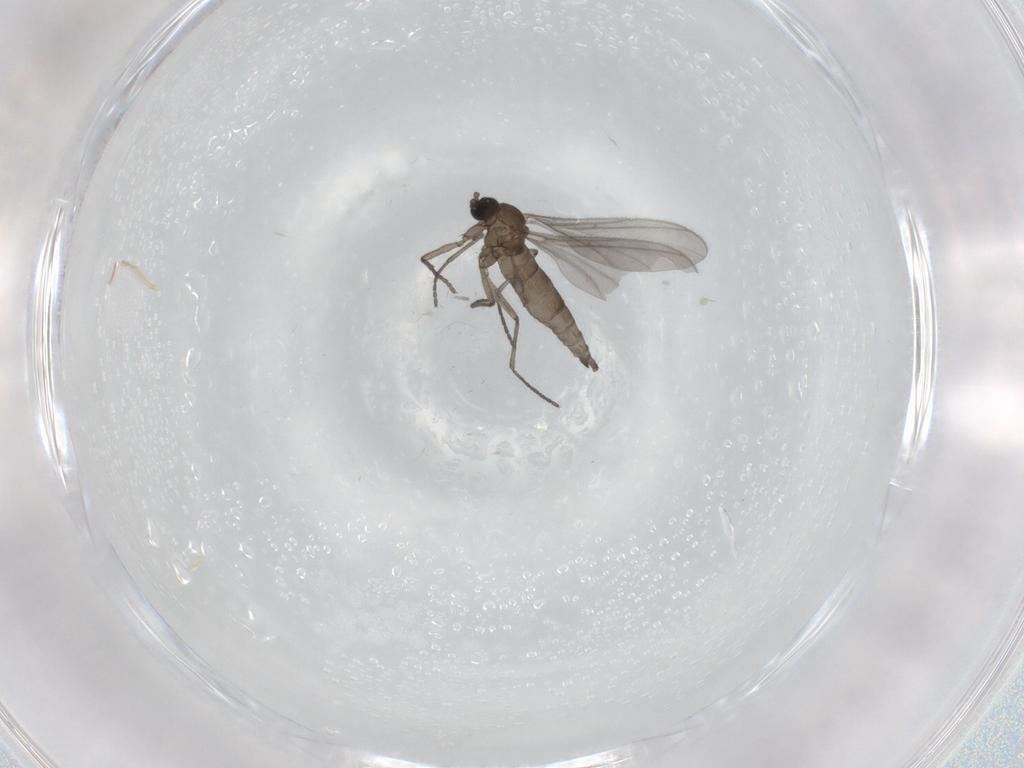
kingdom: Animalia
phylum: Arthropoda
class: Insecta
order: Diptera
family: Sciaridae
